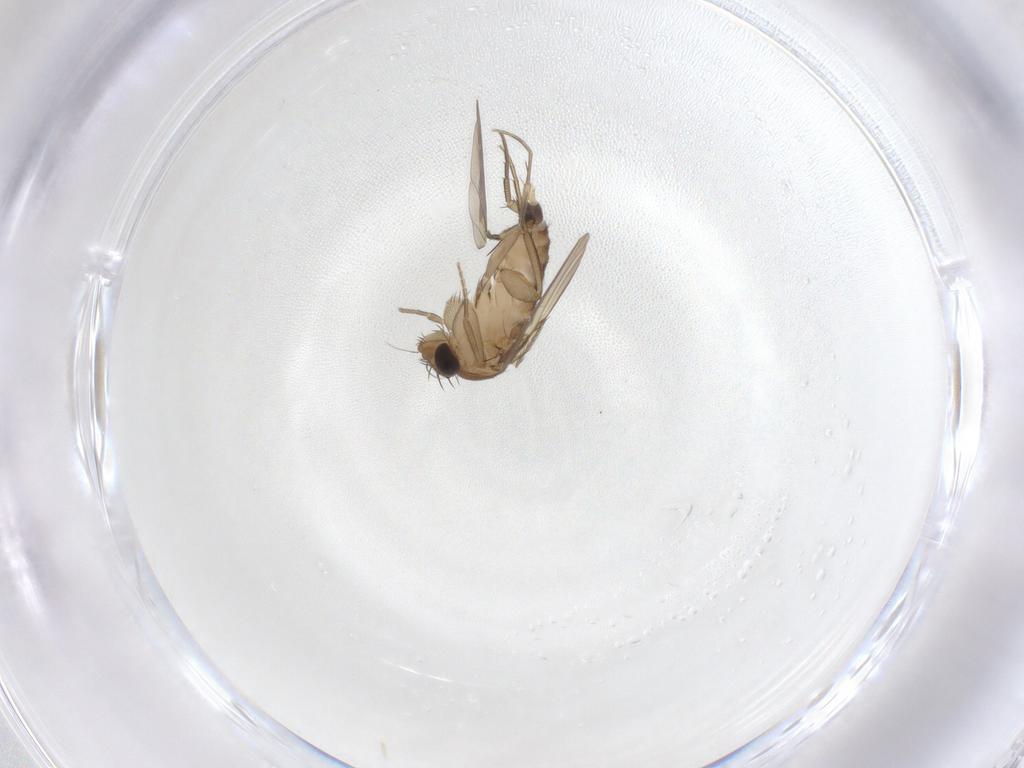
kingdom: Animalia
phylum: Arthropoda
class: Insecta
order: Diptera
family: Phoridae
